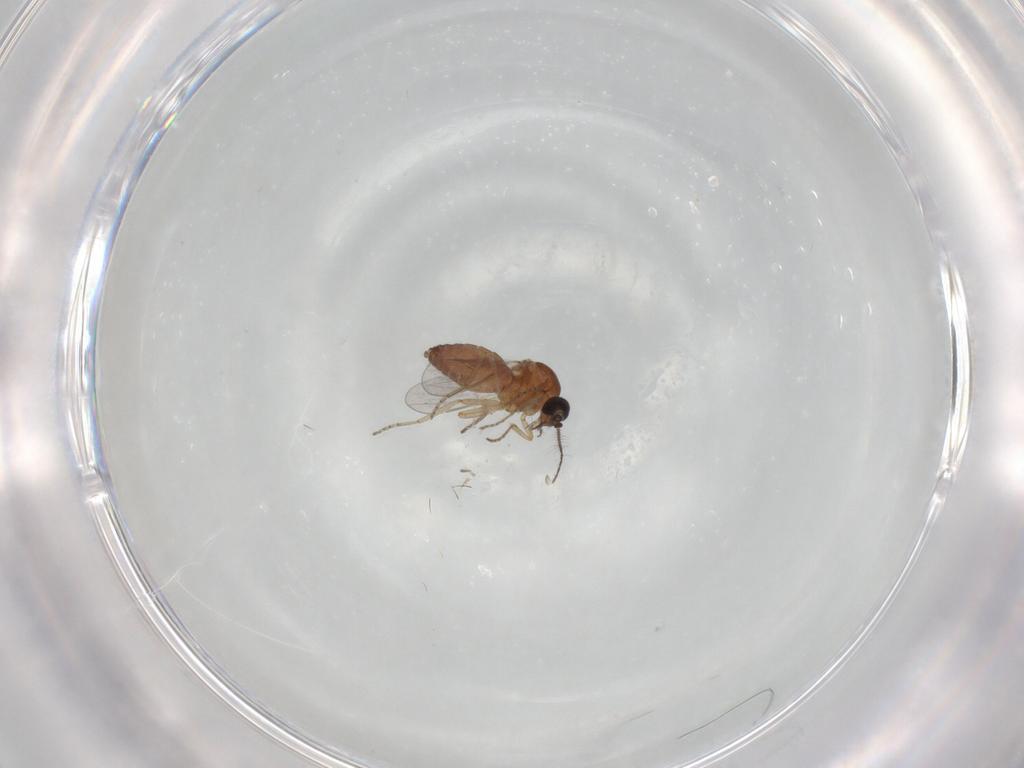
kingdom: Animalia
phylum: Arthropoda
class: Insecta
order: Diptera
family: Ceratopogonidae
